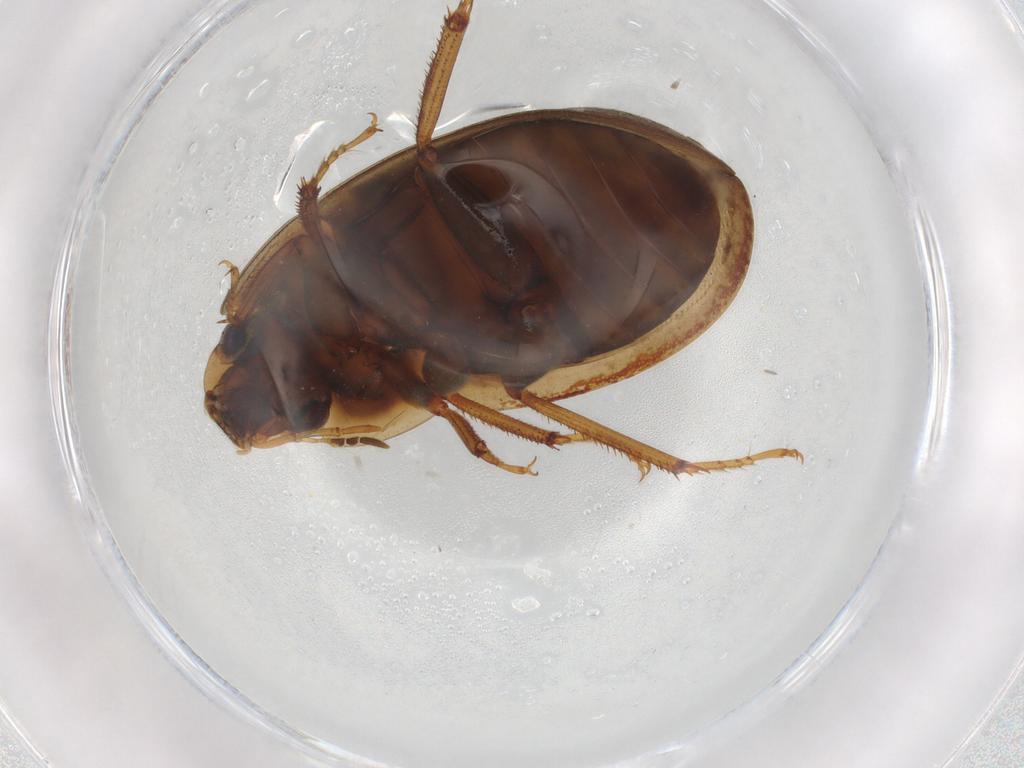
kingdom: Animalia
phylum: Arthropoda
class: Insecta
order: Coleoptera
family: Hydrophilidae
